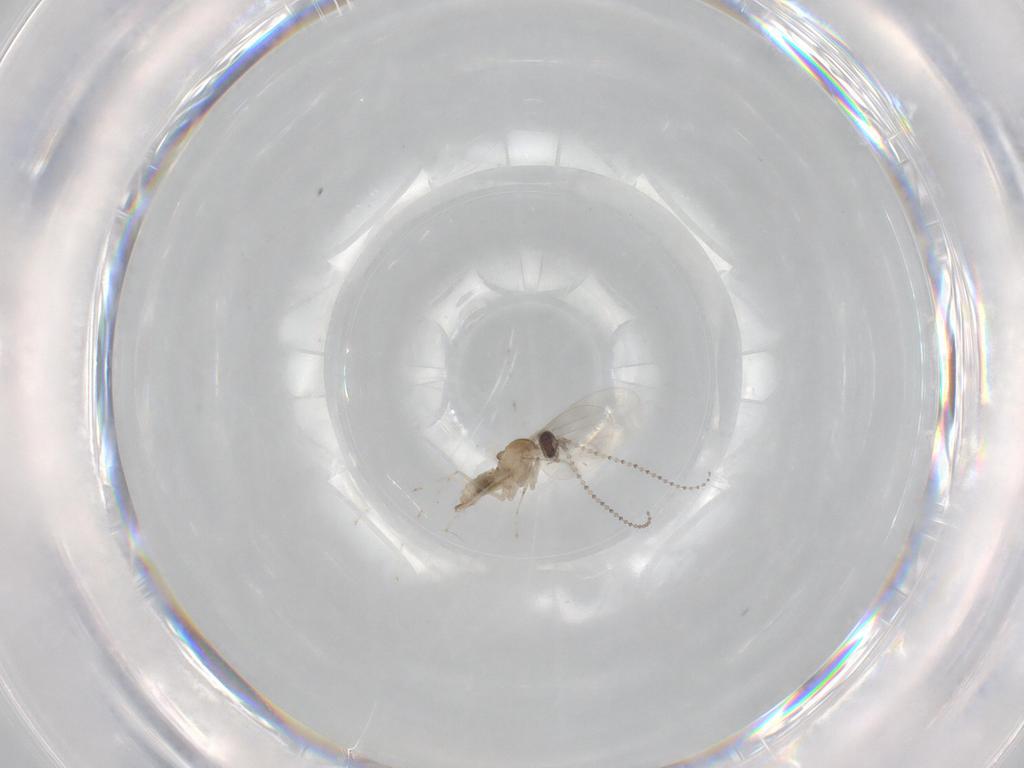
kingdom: Animalia
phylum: Arthropoda
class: Insecta
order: Diptera
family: Cecidomyiidae
